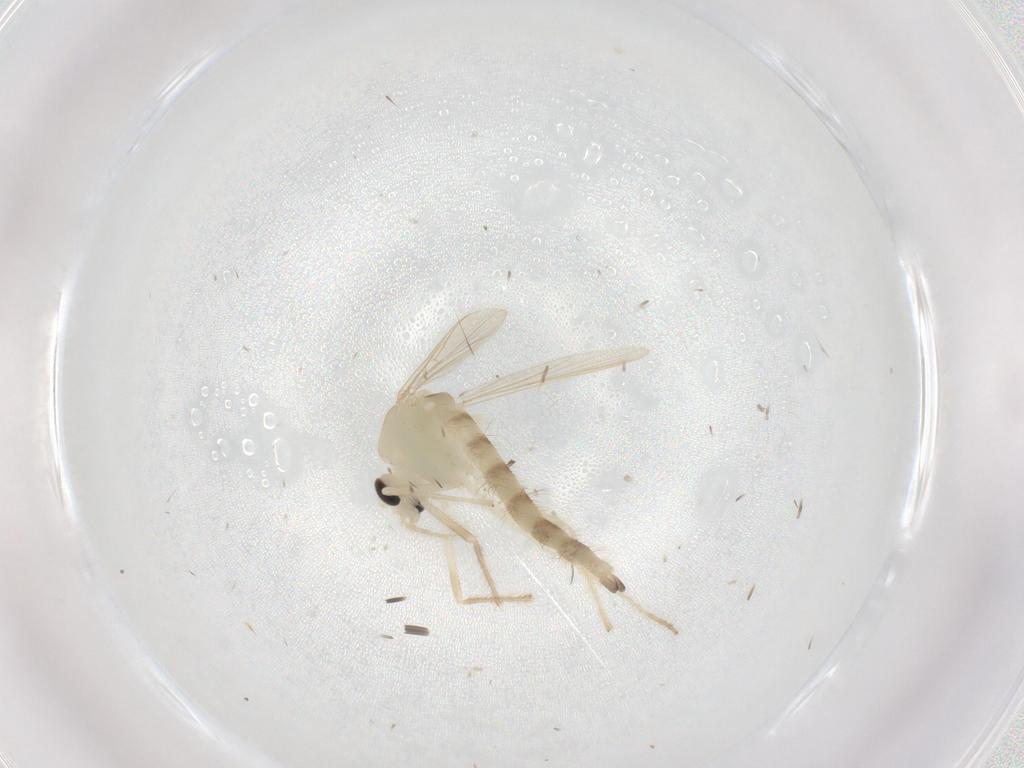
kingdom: Animalia
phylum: Arthropoda
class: Insecta
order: Diptera
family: Chironomidae
